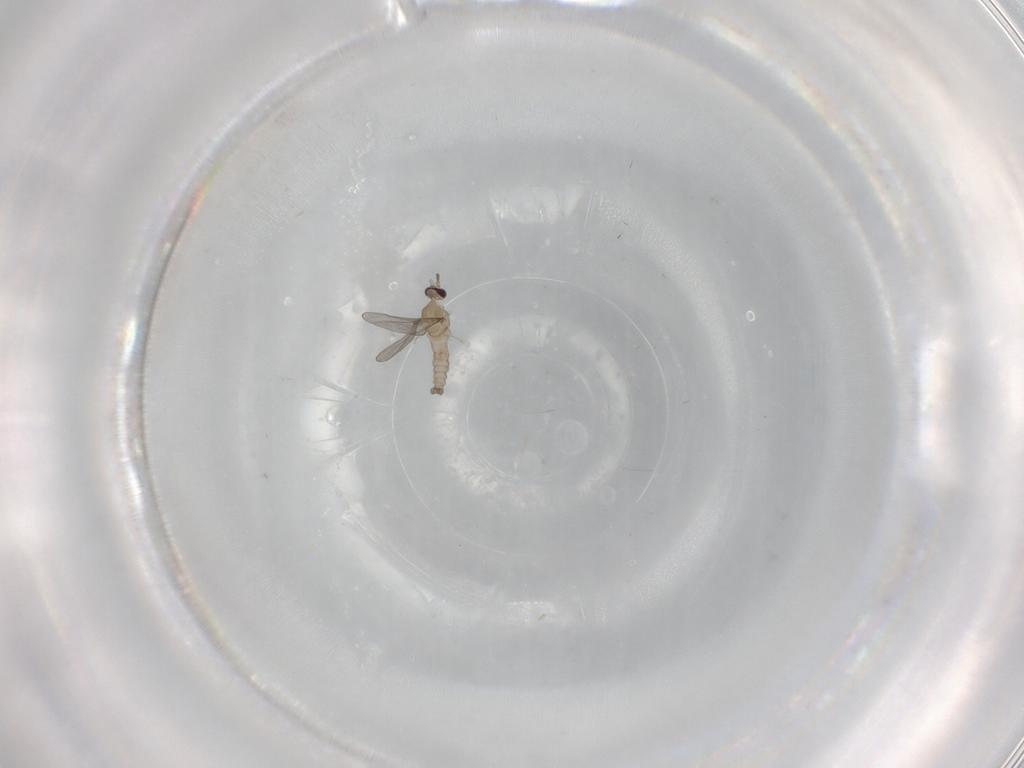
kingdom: Animalia
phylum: Arthropoda
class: Insecta
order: Diptera
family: Cecidomyiidae
